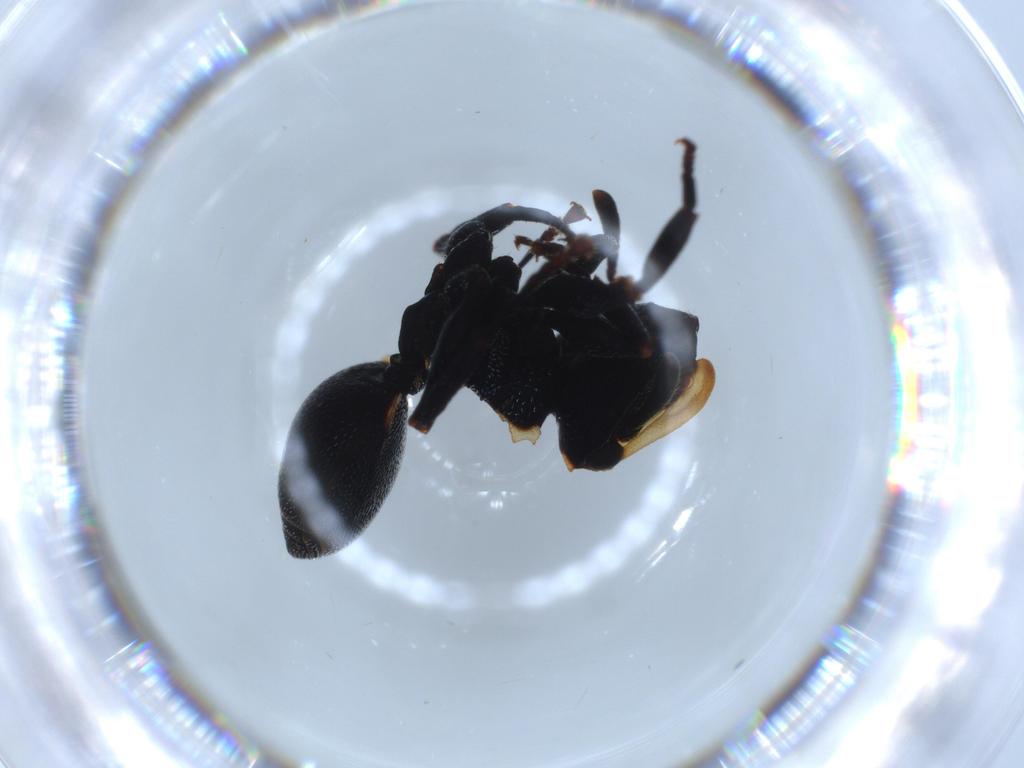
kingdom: Animalia
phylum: Arthropoda
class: Insecta
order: Hymenoptera
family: Formicidae
